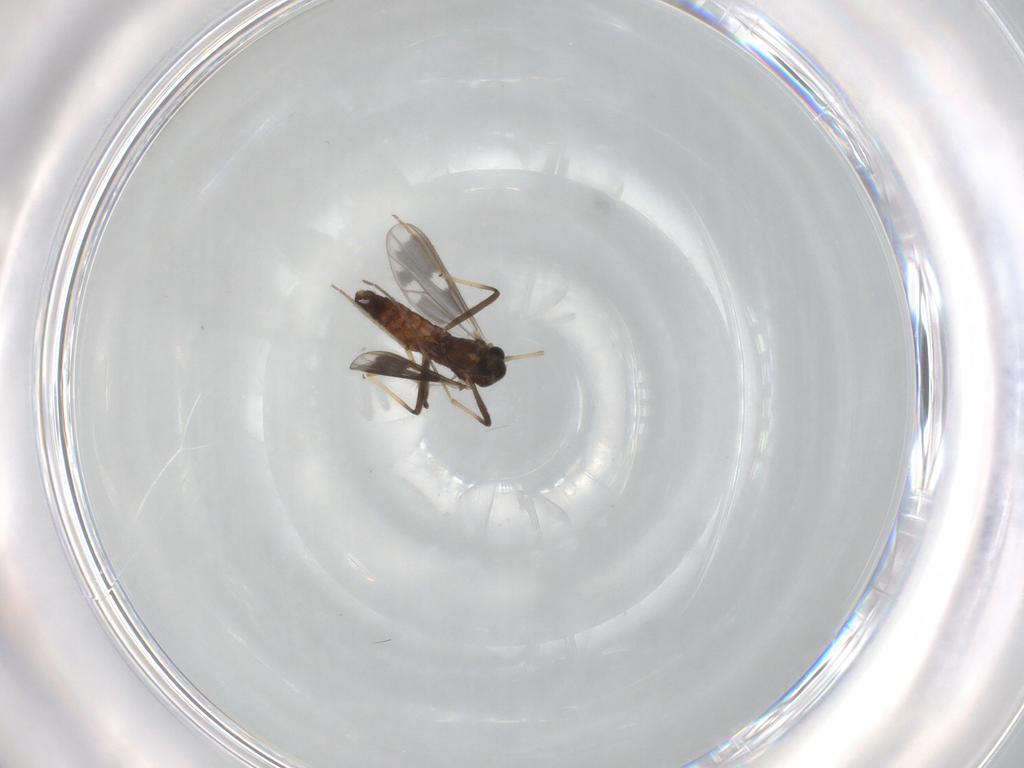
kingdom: Animalia
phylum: Arthropoda
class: Insecta
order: Diptera
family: Chironomidae
